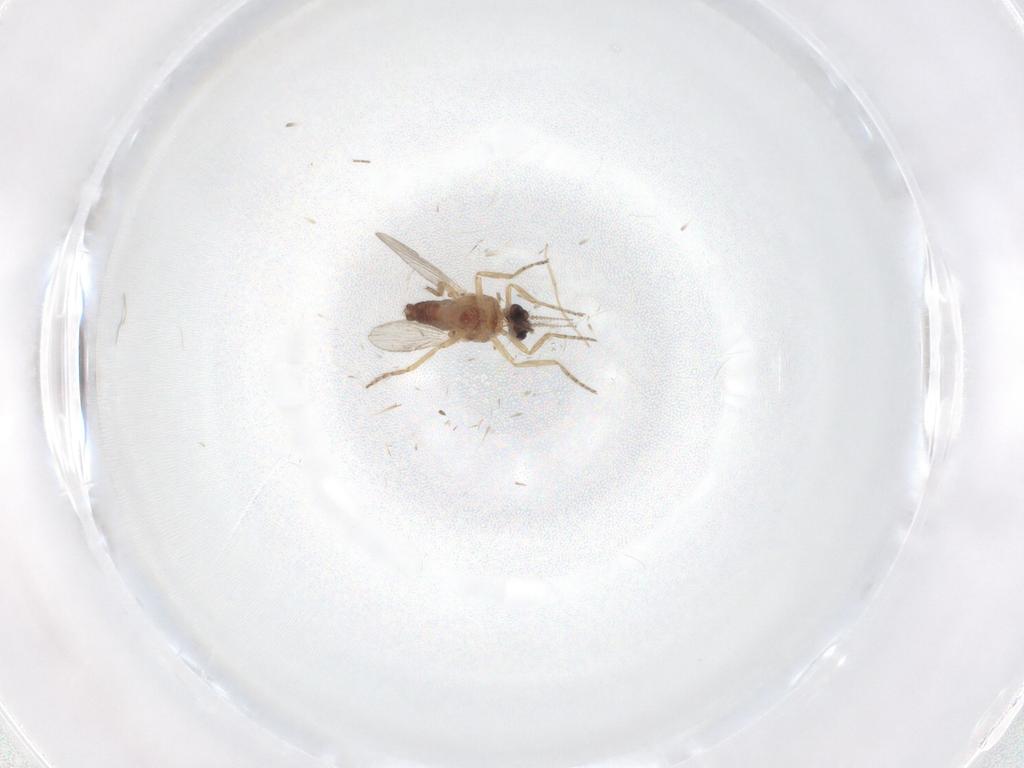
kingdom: Animalia
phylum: Arthropoda
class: Insecta
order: Diptera
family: Ceratopogonidae
